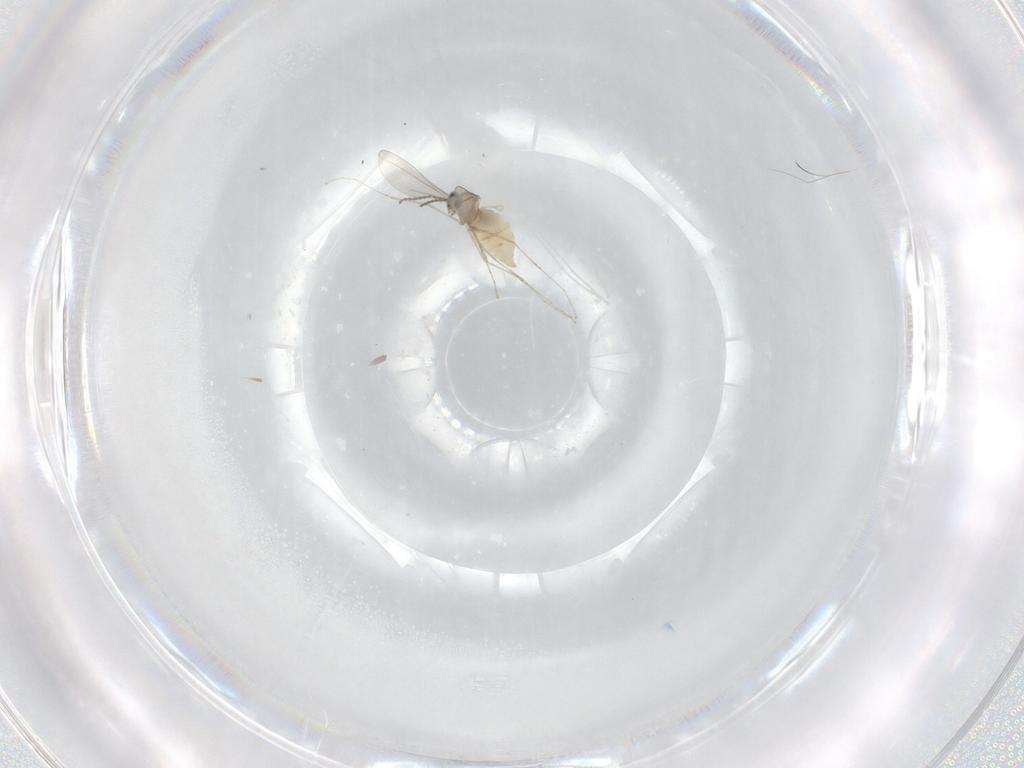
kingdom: Animalia
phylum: Arthropoda
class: Insecta
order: Diptera
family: Cecidomyiidae
